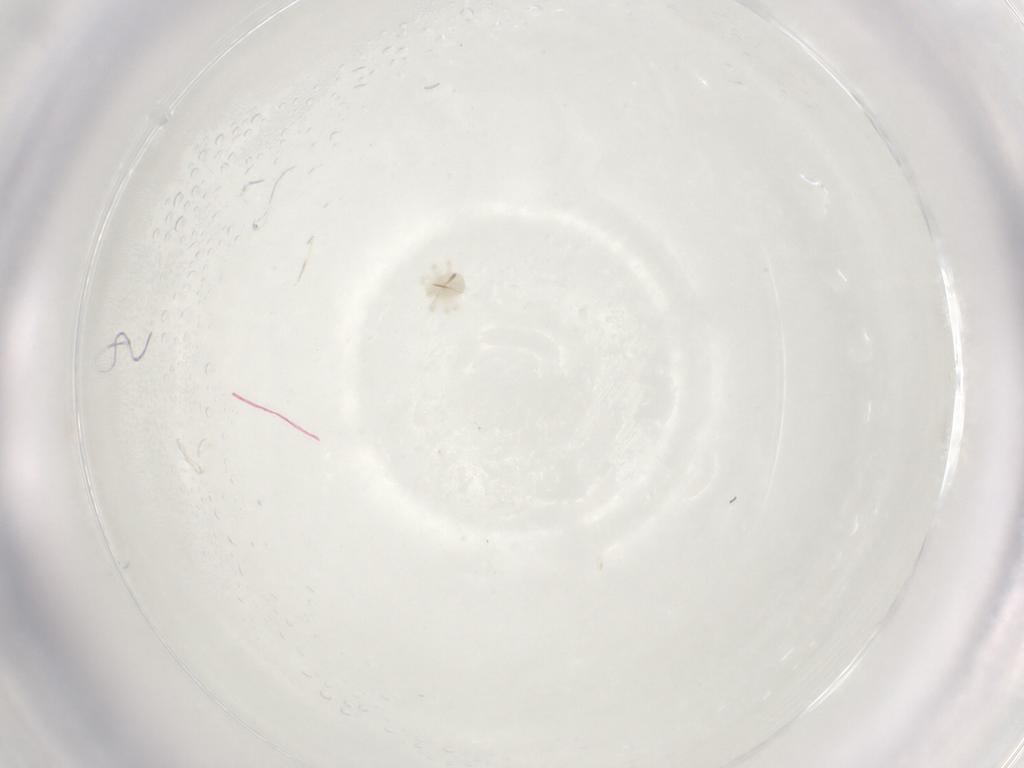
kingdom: Animalia
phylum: Arthropoda
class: Arachnida
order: Trombidiformes
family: Anystidae
